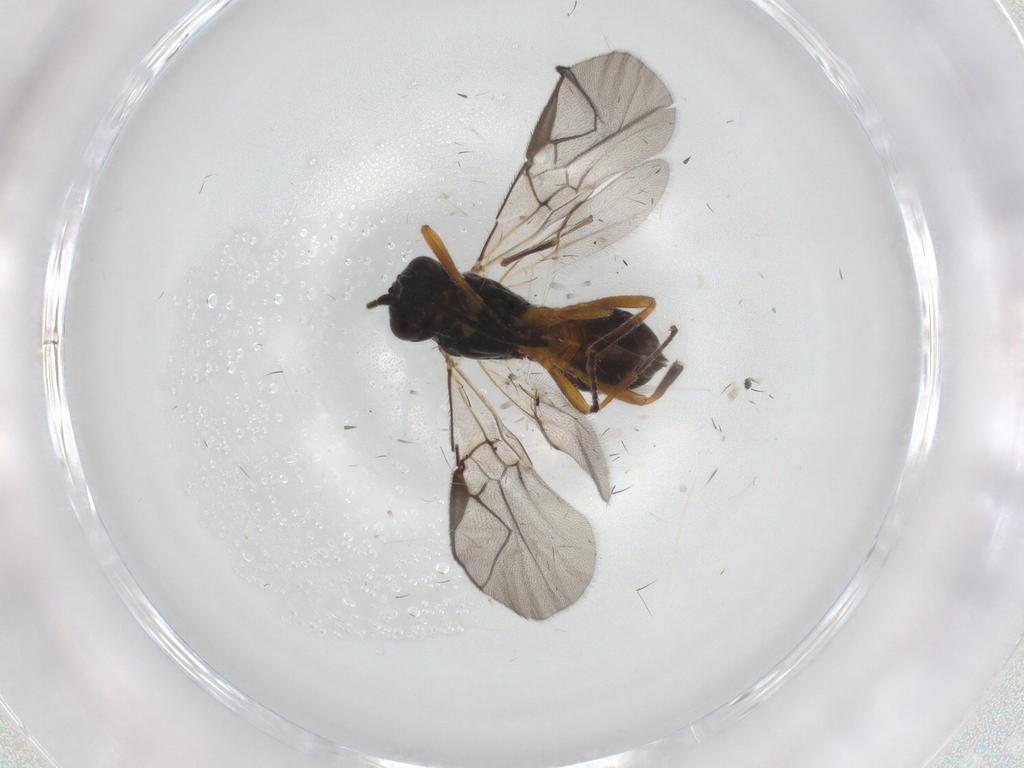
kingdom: Animalia
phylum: Arthropoda
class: Insecta
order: Hymenoptera
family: Braconidae
